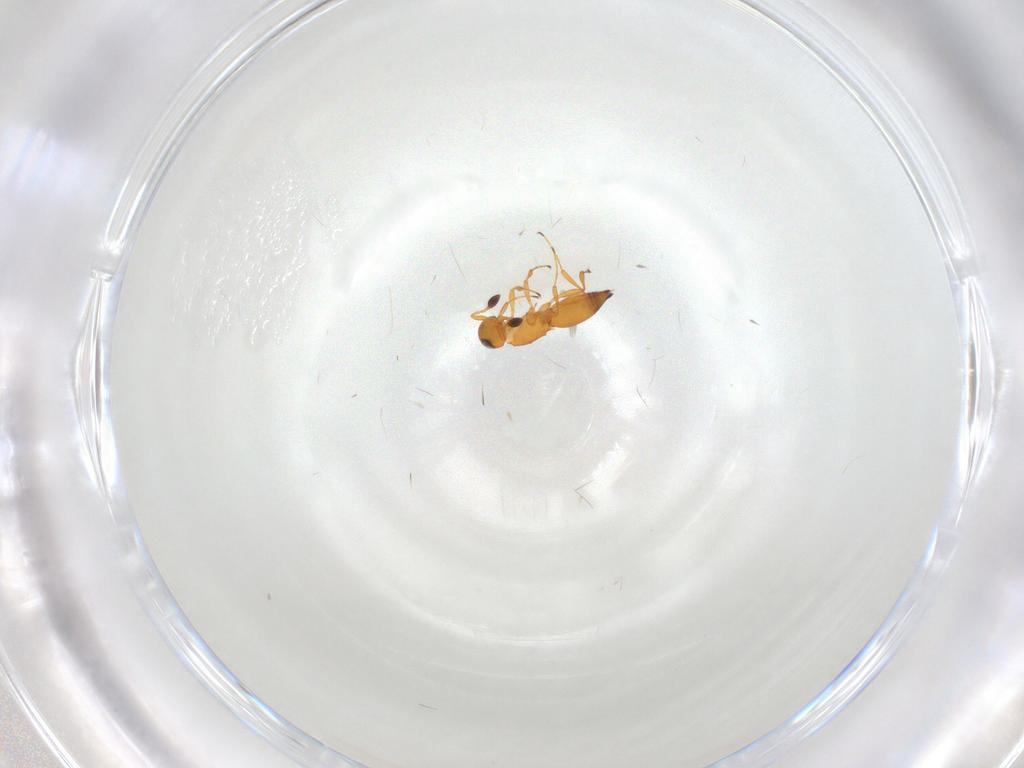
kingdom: Animalia
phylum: Arthropoda
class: Insecta
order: Hymenoptera
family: Platygastridae
